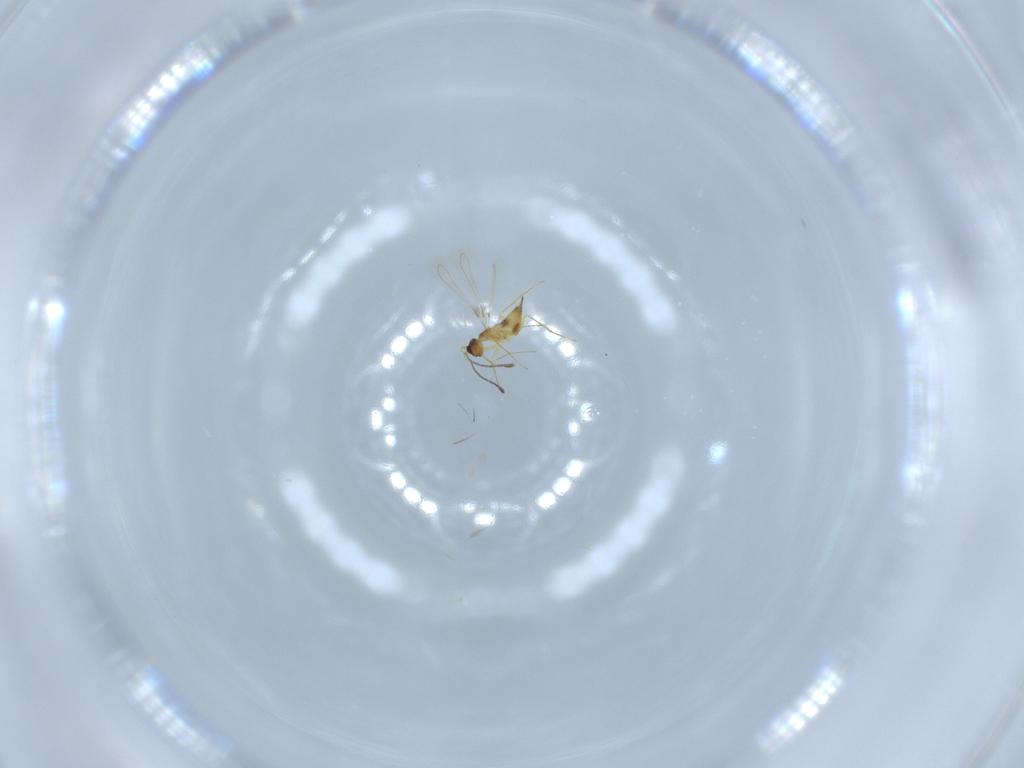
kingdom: Animalia
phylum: Arthropoda
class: Insecta
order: Hymenoptera
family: Mymaridae
